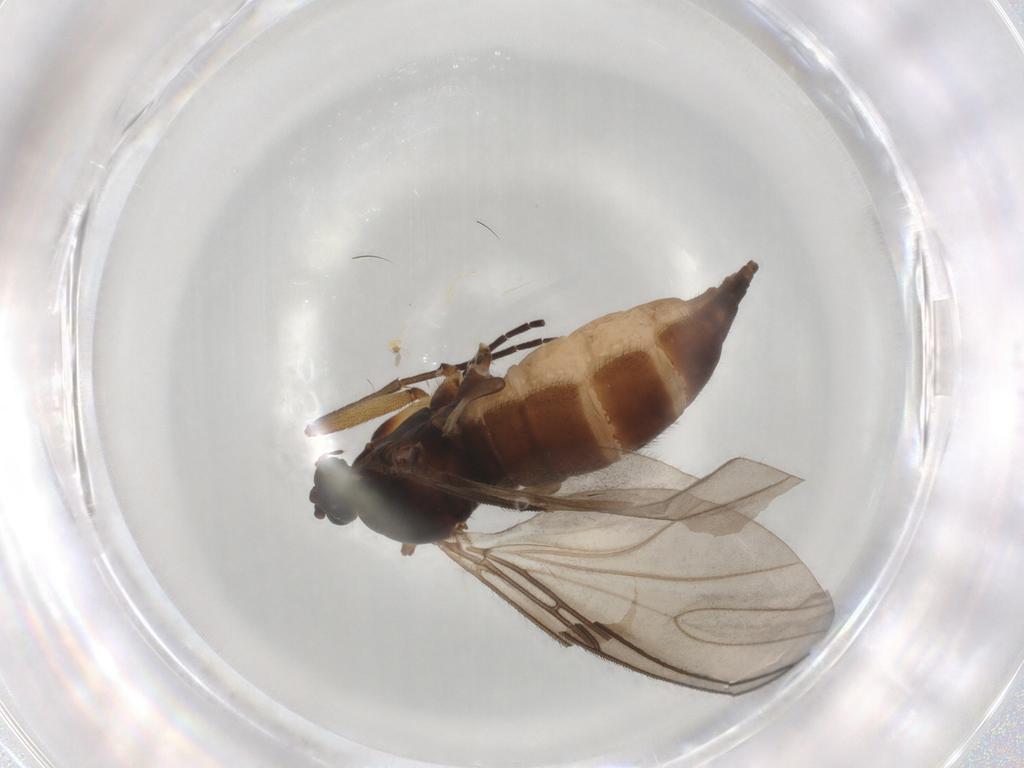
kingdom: Animalia
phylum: Arthropoda
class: Insecta
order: Diptera
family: Sciaridae
